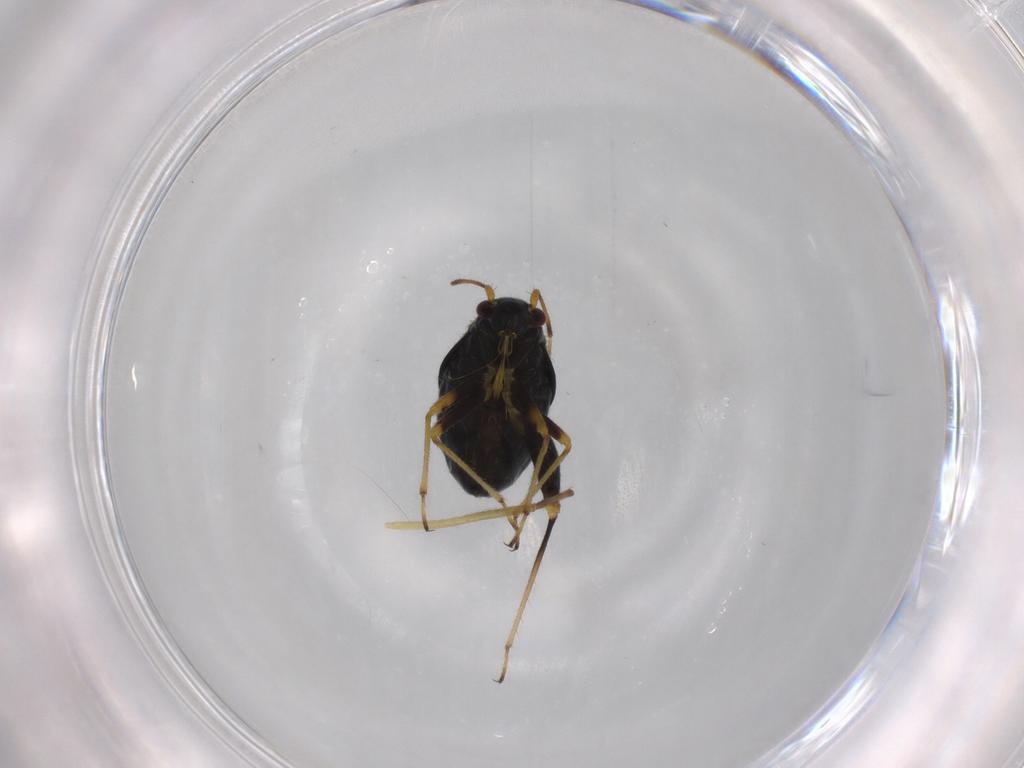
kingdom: Animalia
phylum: Arthropoda
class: Insecta
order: Hemiptera
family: Miridae
